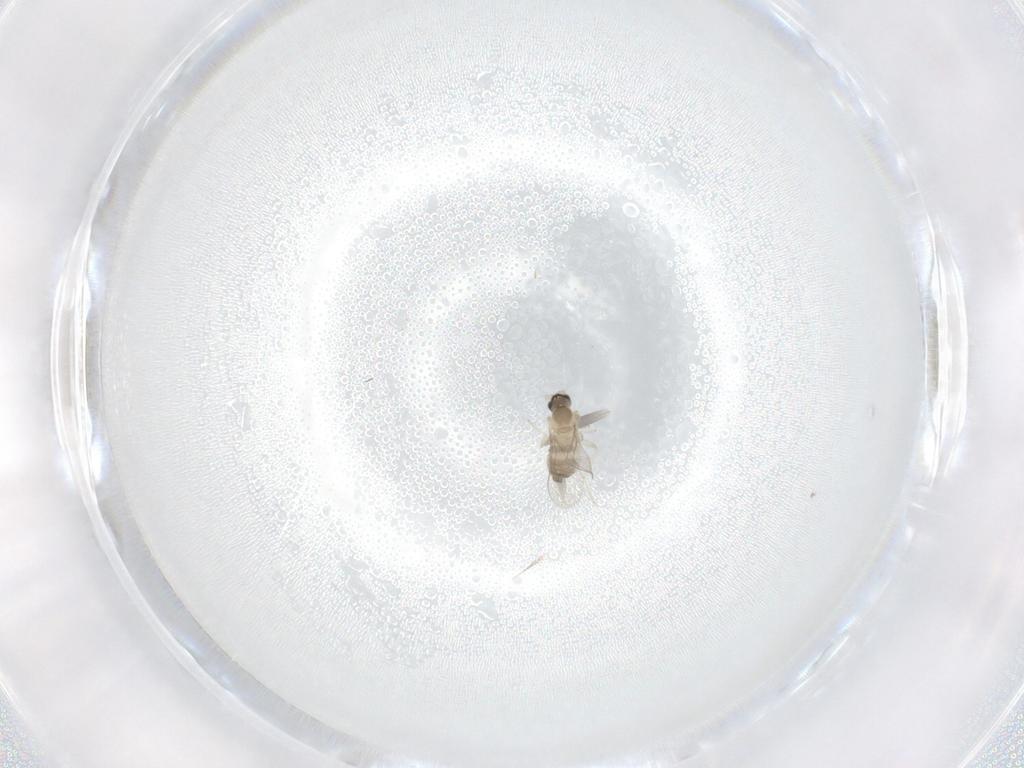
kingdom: Animalia
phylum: Arthropoda
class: Insecta
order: Diptera
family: Cecidomyiidae
